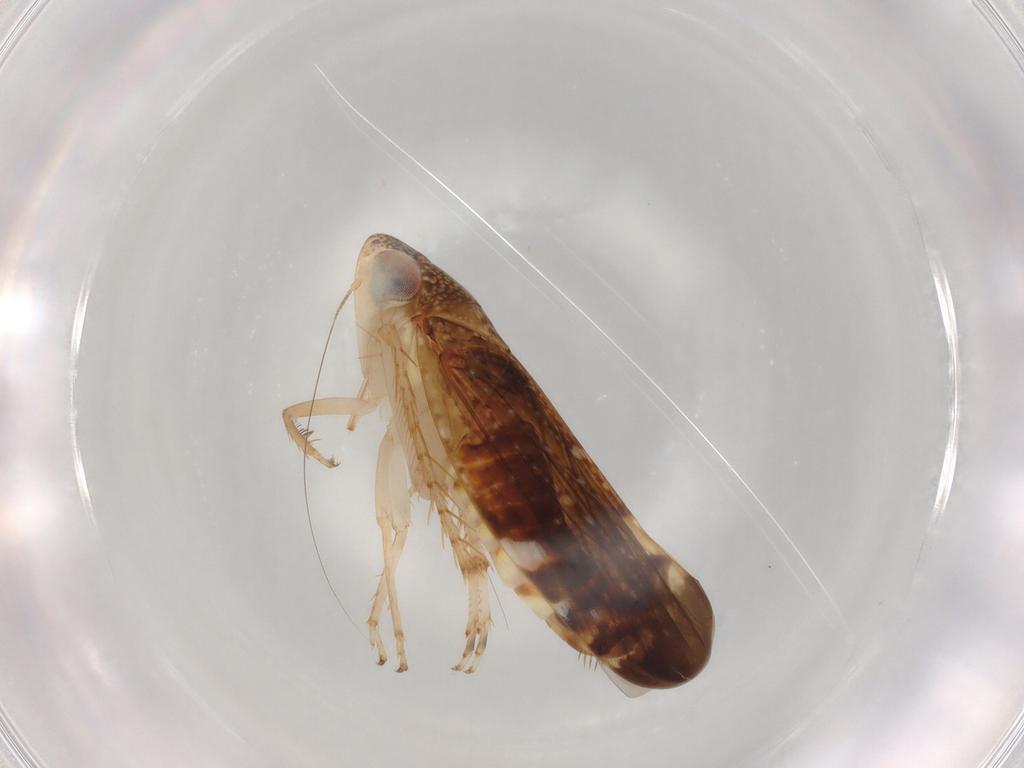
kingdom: Animalia
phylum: Arthropoda
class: Insecta
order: Hemiptera
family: Cicadellidae
